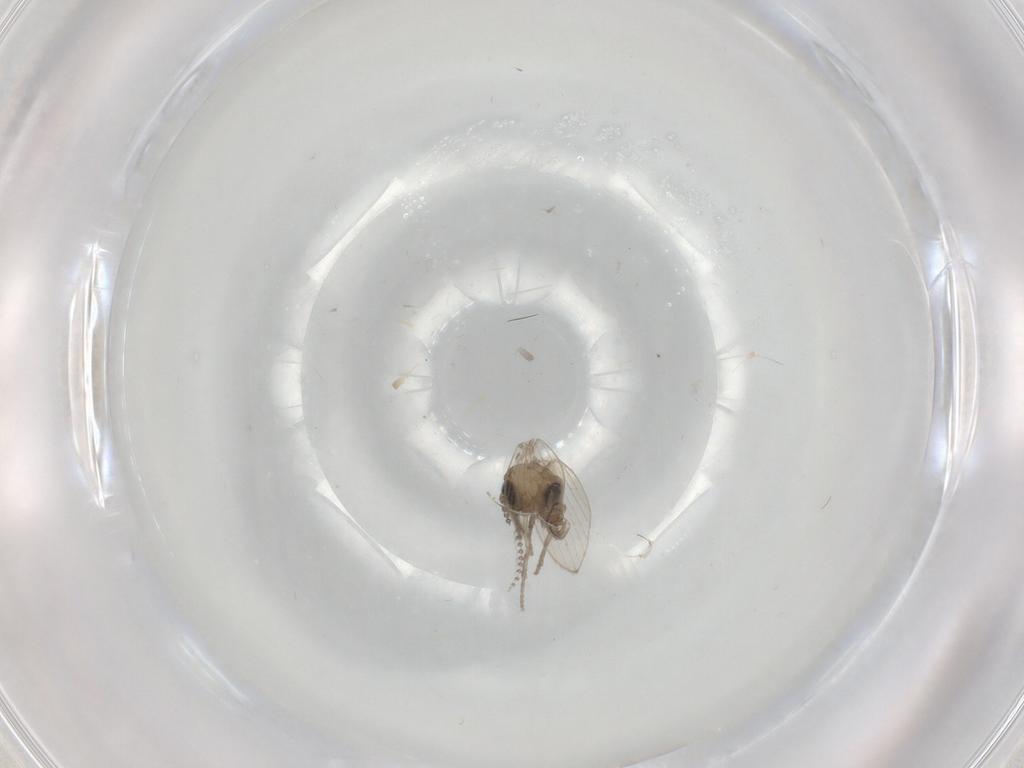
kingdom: Animalia
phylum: Arthropoda
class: Insecta
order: Diptera
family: Psychodidae
